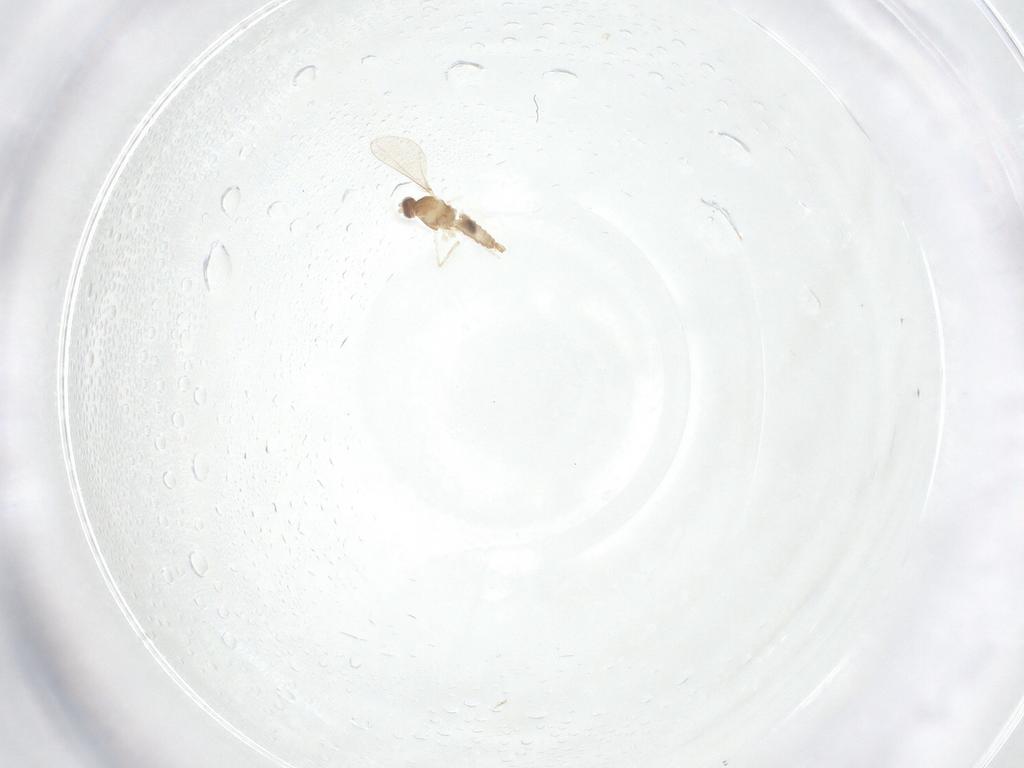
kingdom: Animalia
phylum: Arthropoda
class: Insecta
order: Diptera
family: Cecidomyiidae
